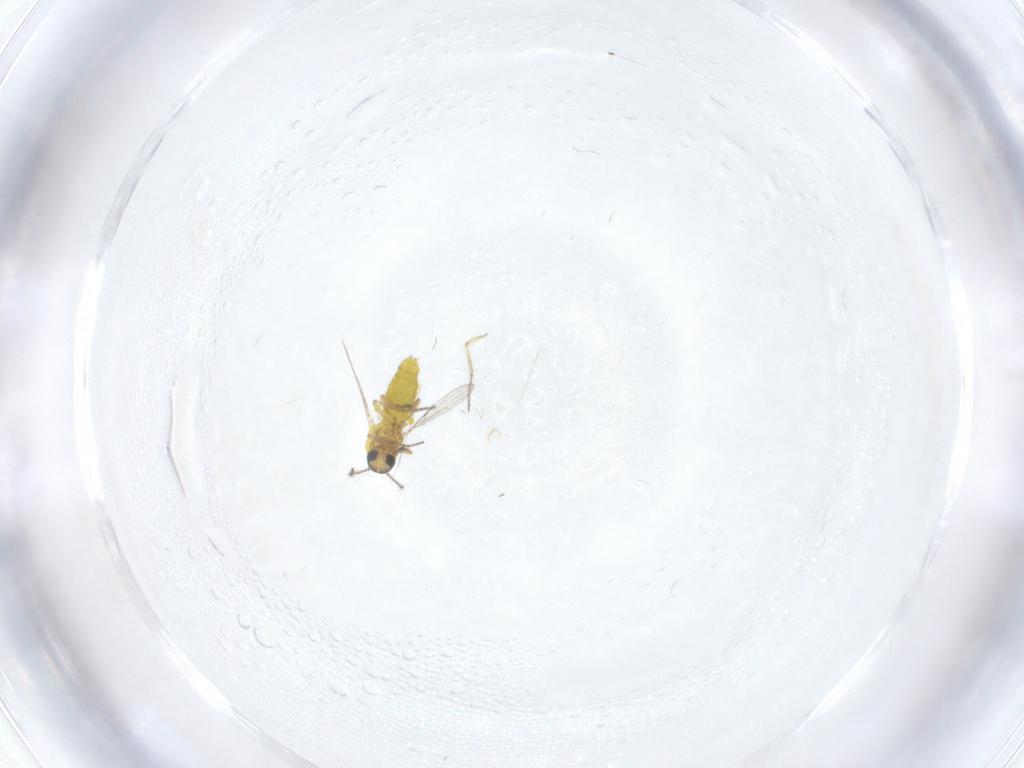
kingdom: Animalia
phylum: Arthropoda
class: Insecta
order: Diptera
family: Ceratopogonidae
